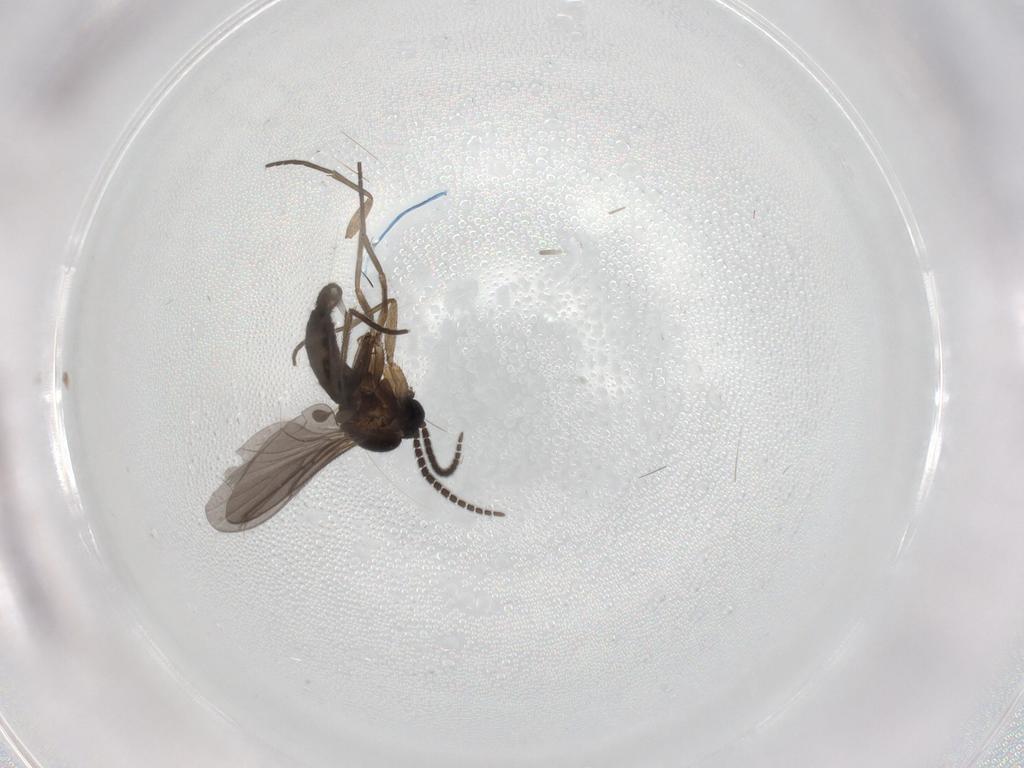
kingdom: Animalia
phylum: Arthropoda
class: Insecta
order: Diptera
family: Sciaridae
